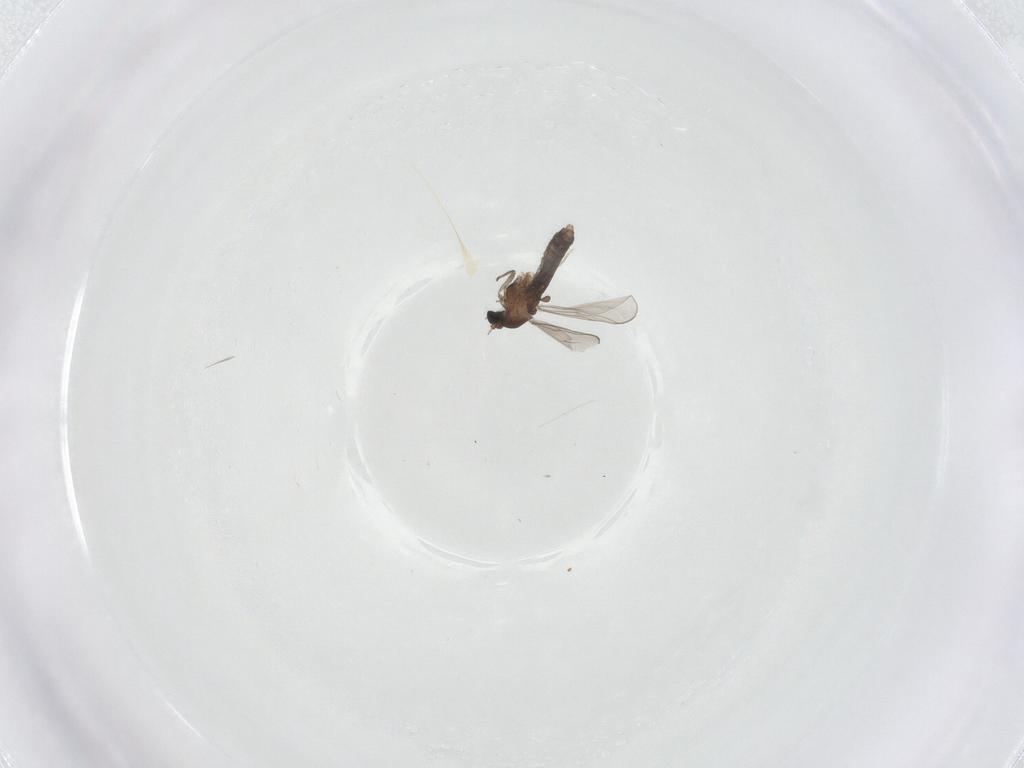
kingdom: Animalia
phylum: Arthropoda
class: Insecta
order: Diptera
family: Chironomidae
